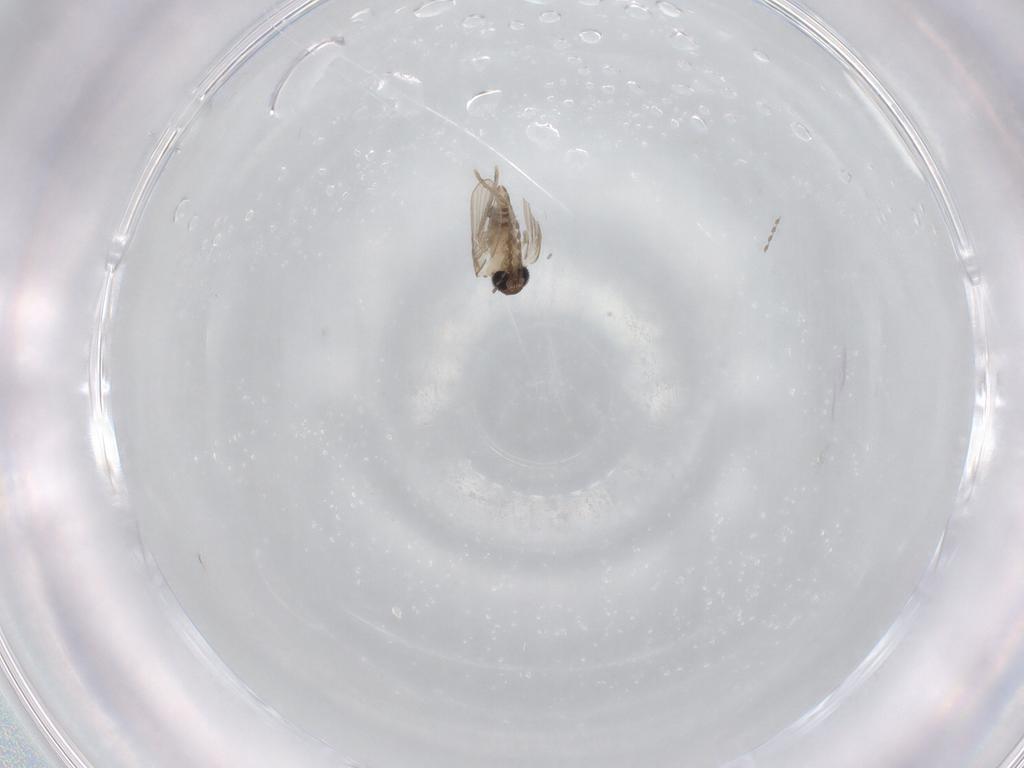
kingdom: Animalia
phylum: Arthropoda
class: Insecta
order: Diptera
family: Psychodidae
